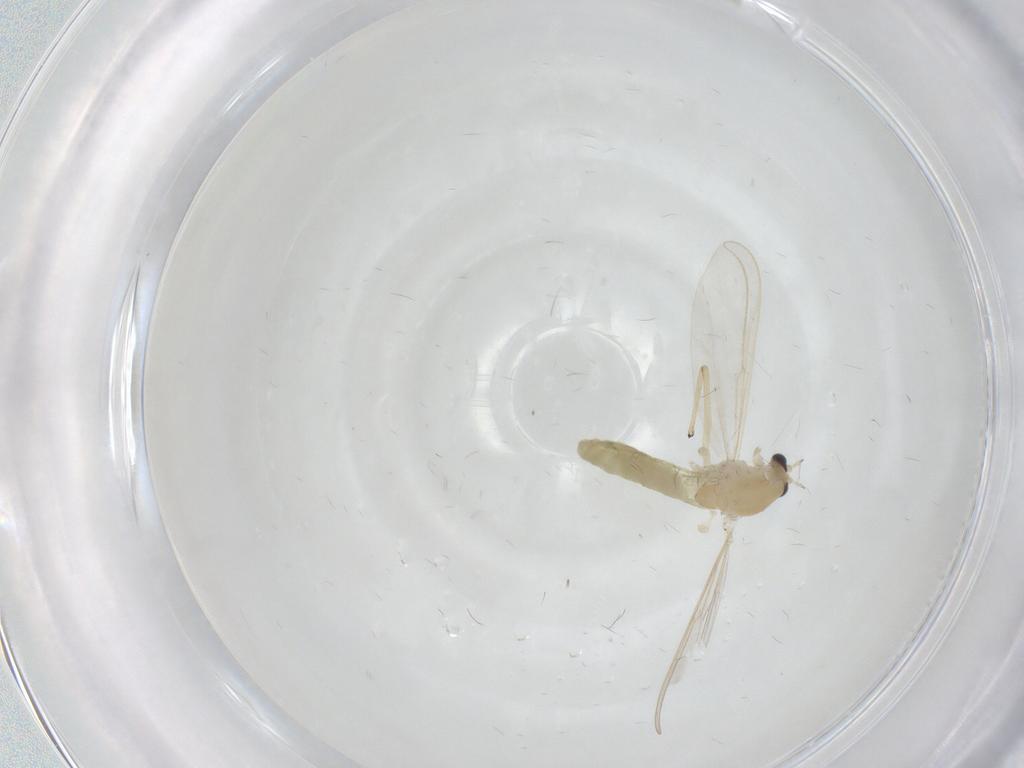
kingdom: Animalia
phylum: Arthropoda
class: Insecta
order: Diptera
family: Chironomidae
